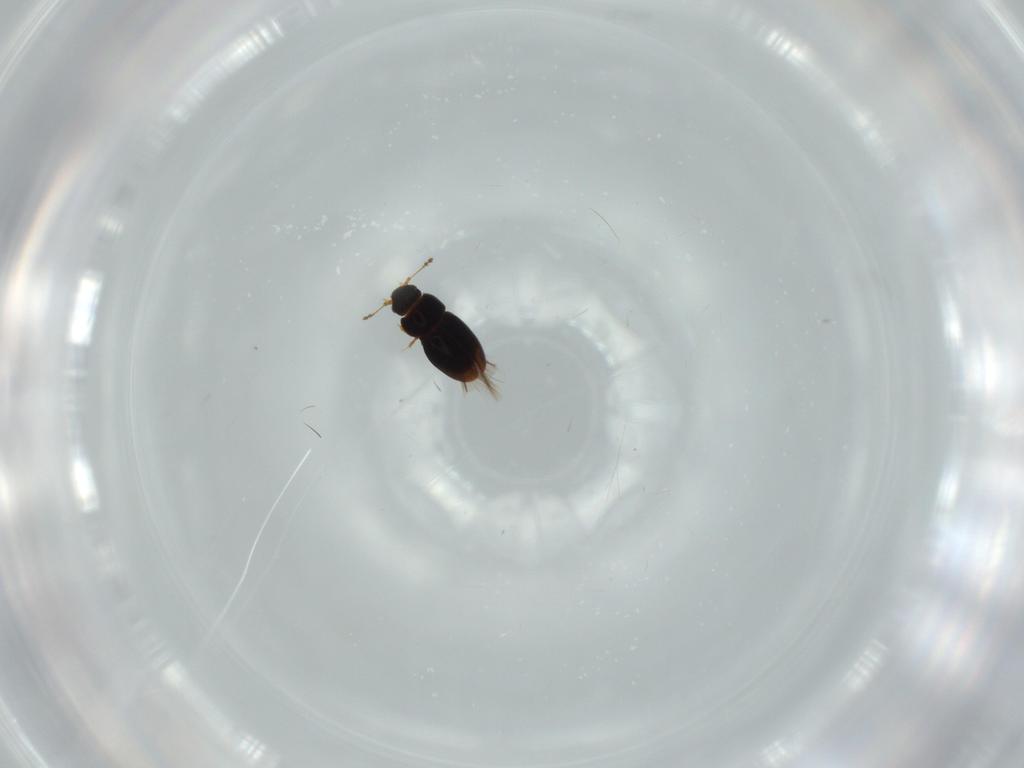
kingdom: Animalia
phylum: Arthropoda
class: Insecta
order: Coleoptera
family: Ptiliidae
